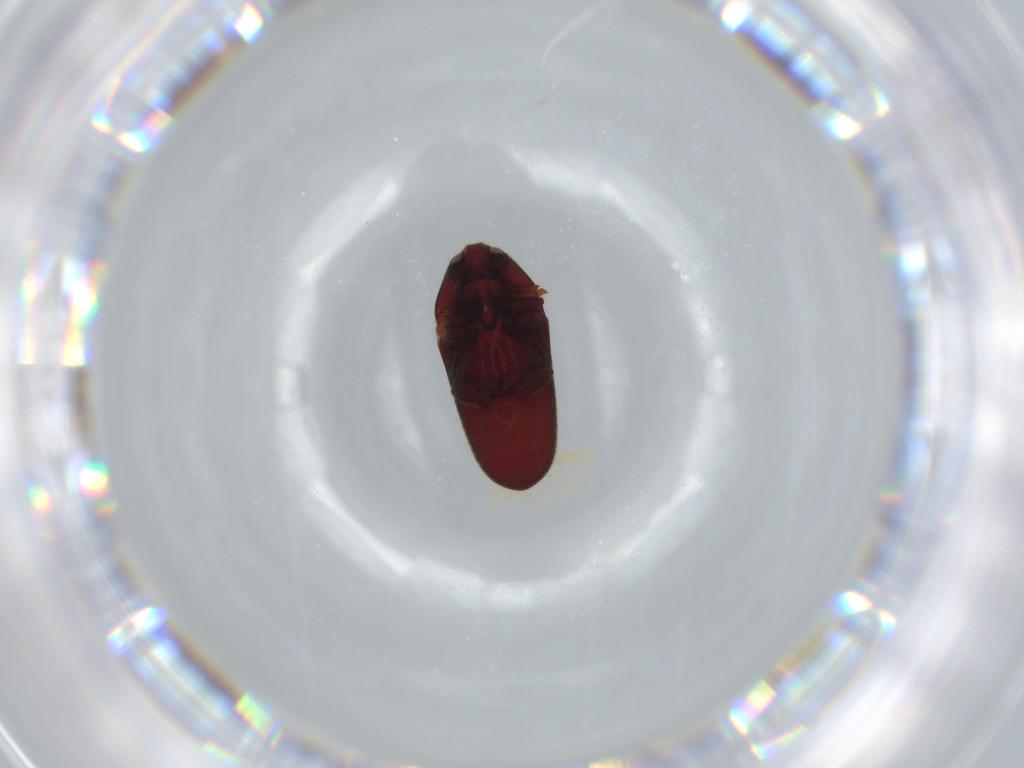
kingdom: Animalia
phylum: Arthropoda
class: Insecta
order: Coleoptera
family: Throscidae
